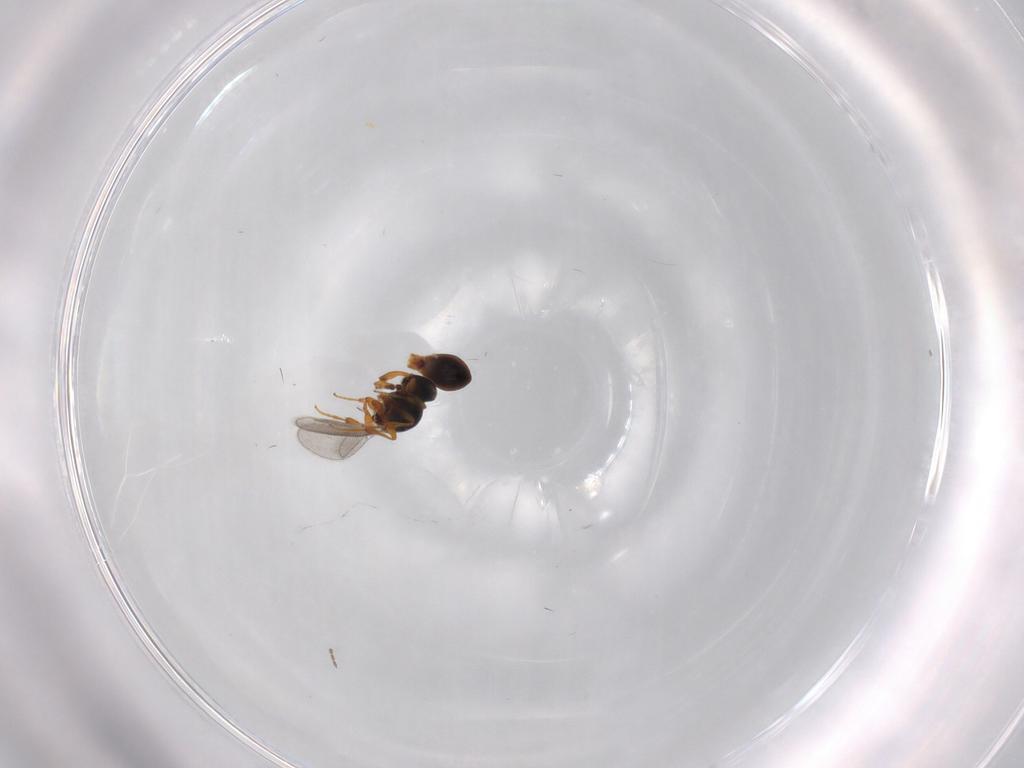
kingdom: Animalia
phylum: Arthropoda
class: Insecta
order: Hymenoptera
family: Platygastridae
